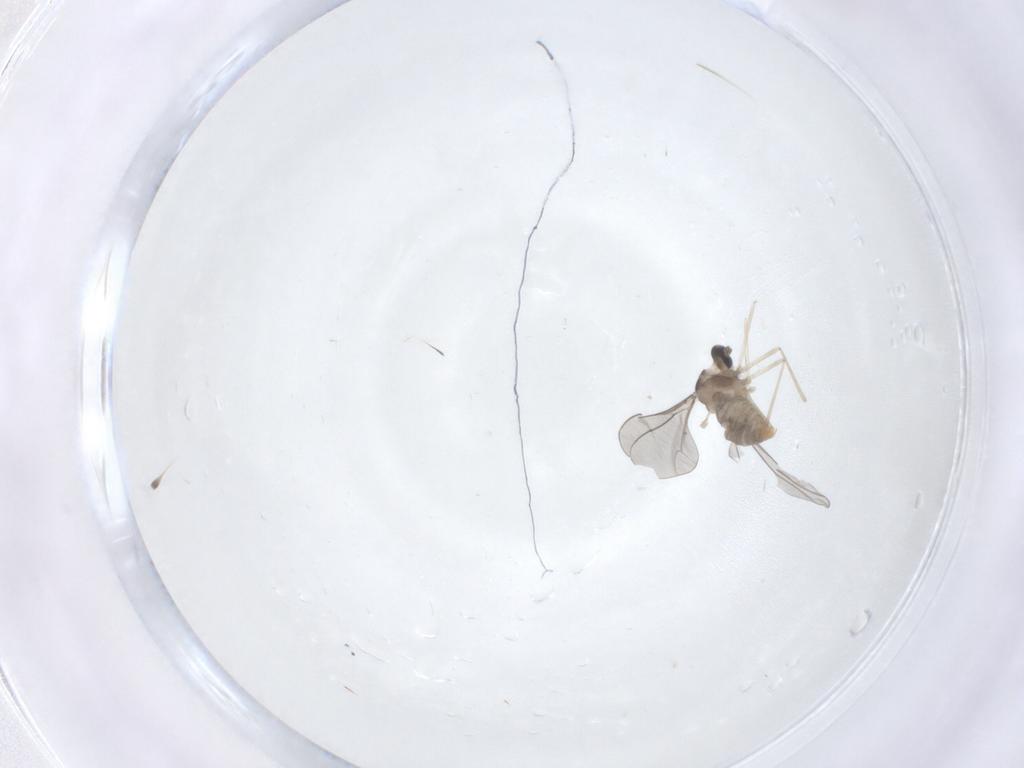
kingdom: Animalia
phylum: Arthropoda
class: Insecta
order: Diptera
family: Cecidomyiidae
